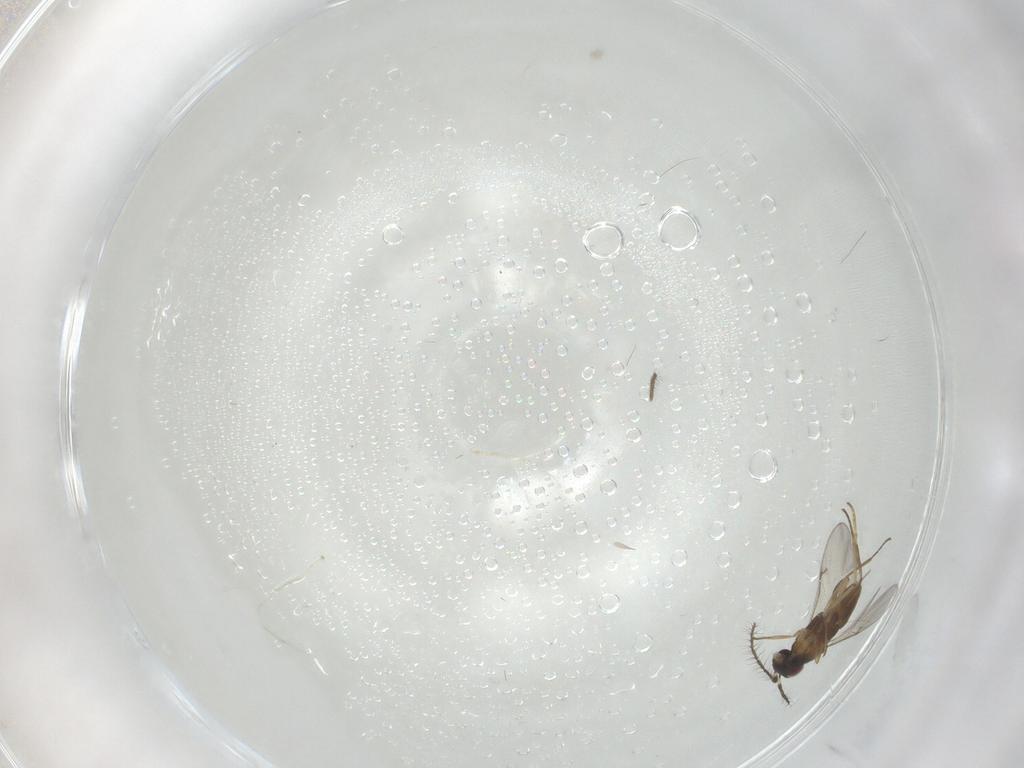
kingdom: Animalia
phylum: Arthropoda
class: Insecta
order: Hymenoptera
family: Encyrtidae
